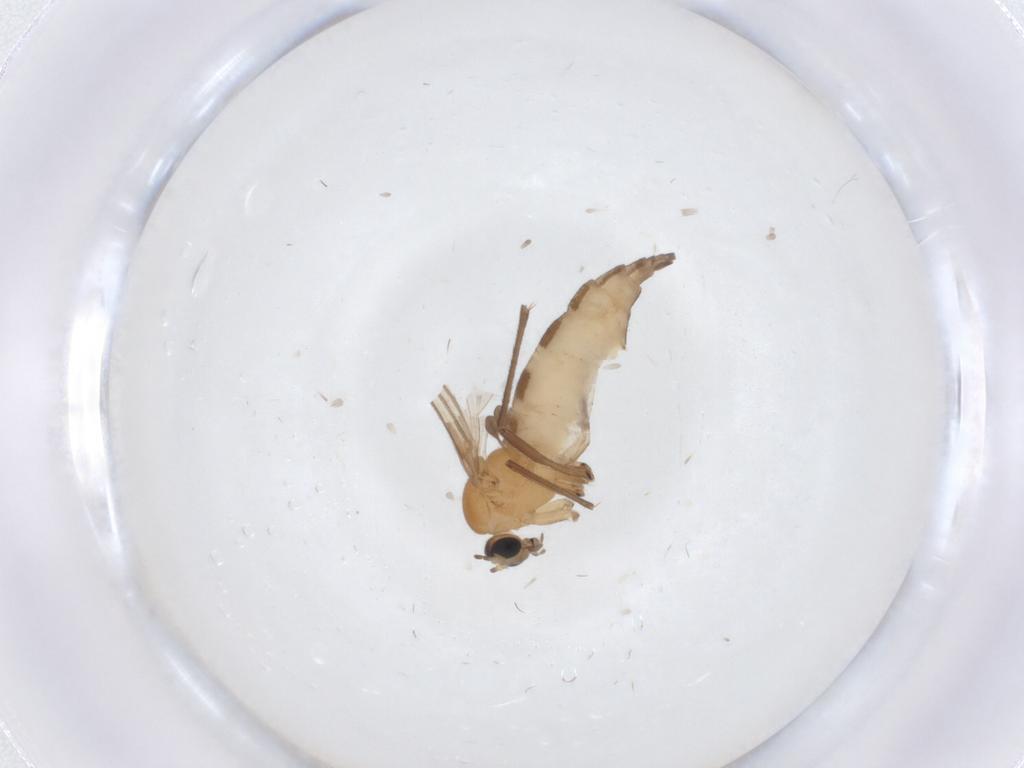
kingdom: Animalia
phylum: Arthropoda
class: Insecta
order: Diptera
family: Sciaridae
